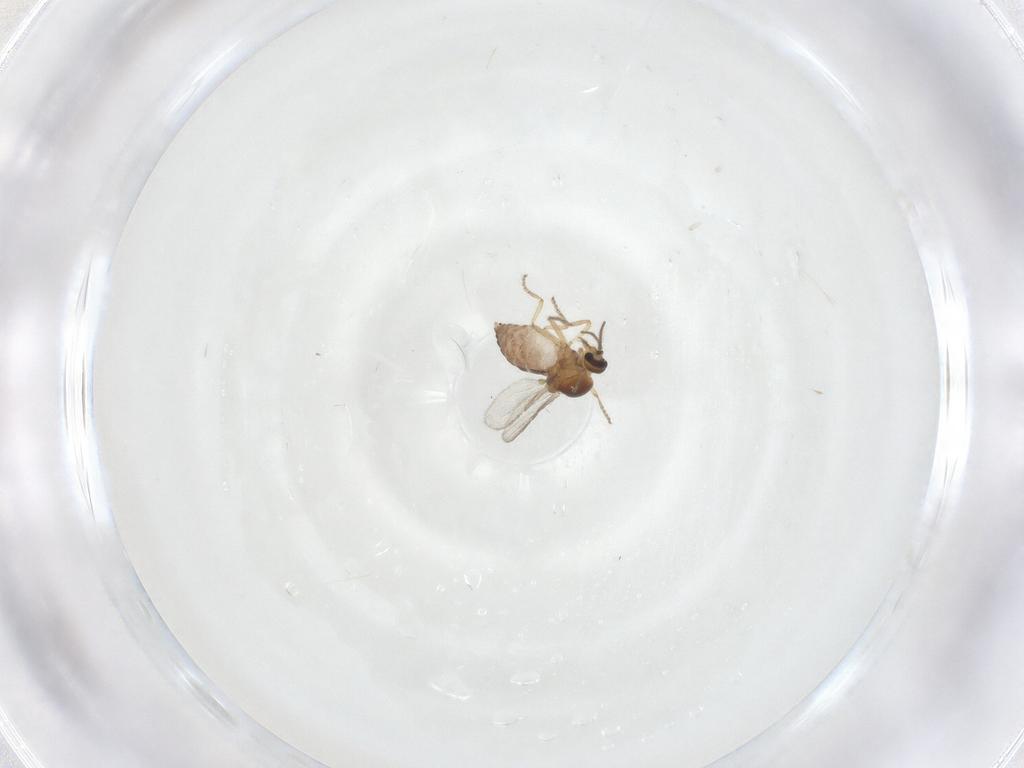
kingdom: Animalia
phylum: Arthropoda
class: Insecta
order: Diptera
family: Ceratopogonidae
